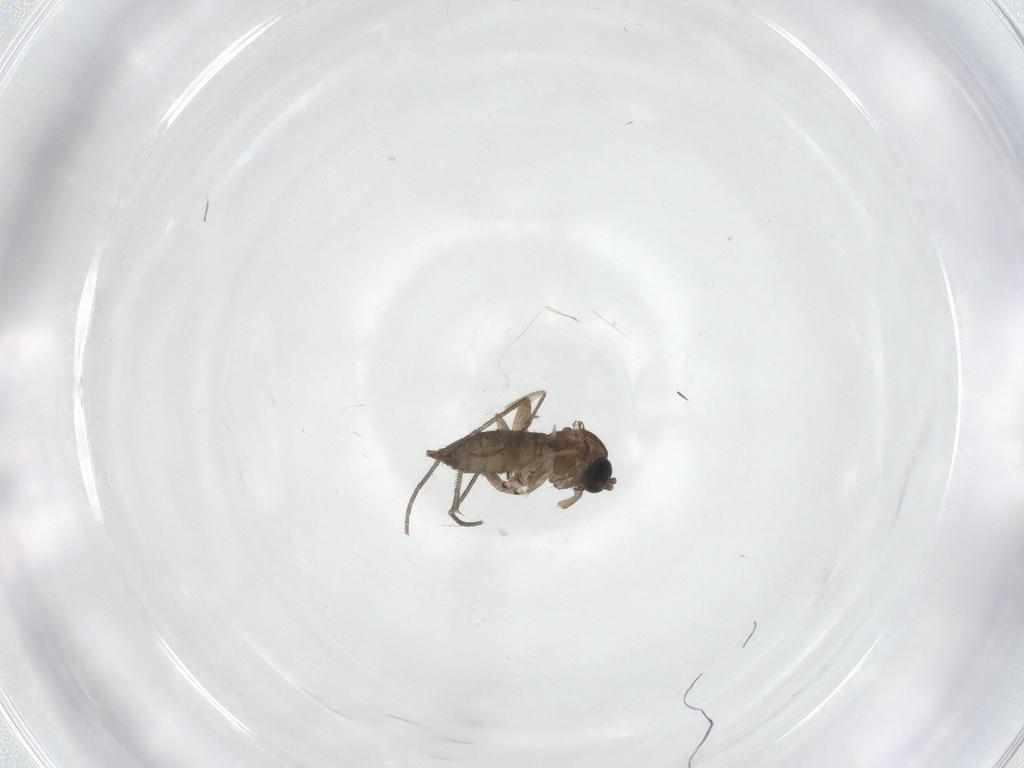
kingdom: Animalia
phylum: Arthropoda
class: Insecta
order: Diptera
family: Sciaridae
